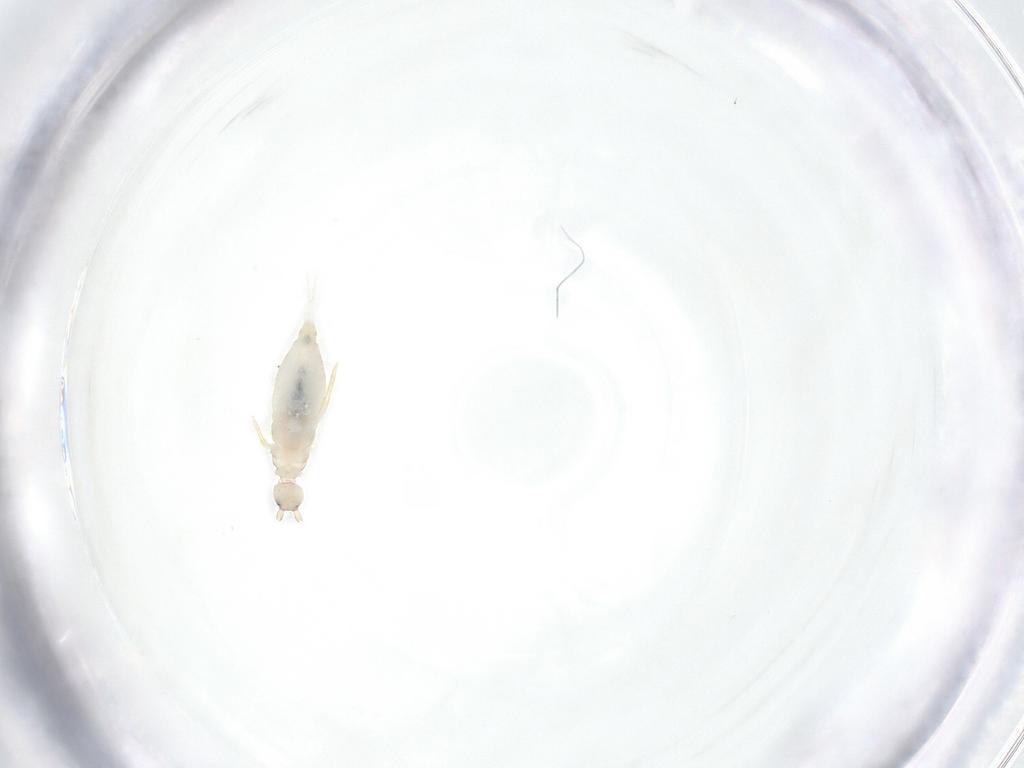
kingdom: Animalia
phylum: Arthropoda
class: Collembola
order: Entomobryomorpha
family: Entomobryidae
